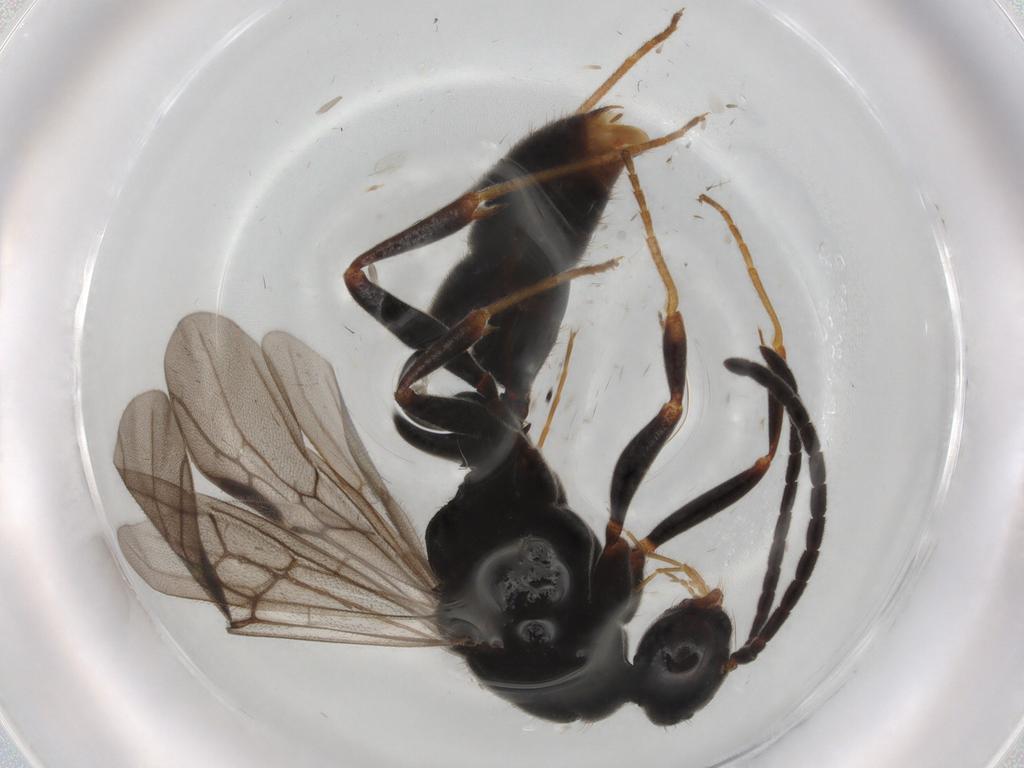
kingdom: Animalia
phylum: Arthropoda
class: Insecta
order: Hymenoptera
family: Formicidae
